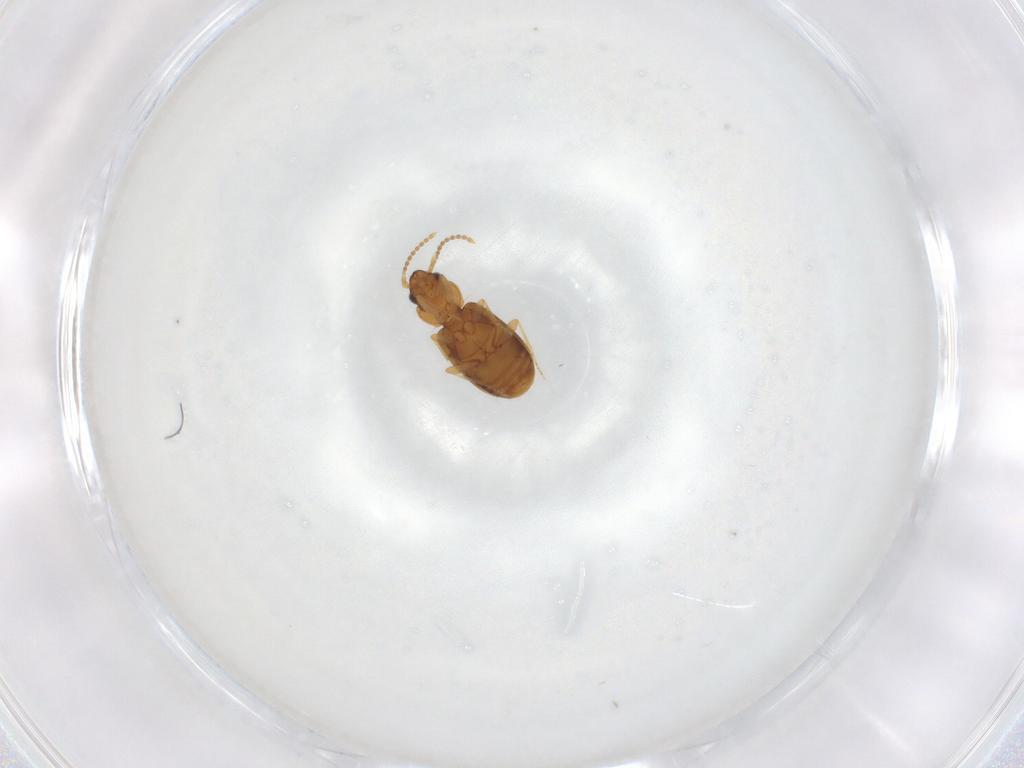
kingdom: Animalia
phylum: Arthropoda
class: Insecta
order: Coleoptera
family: Carabidae
